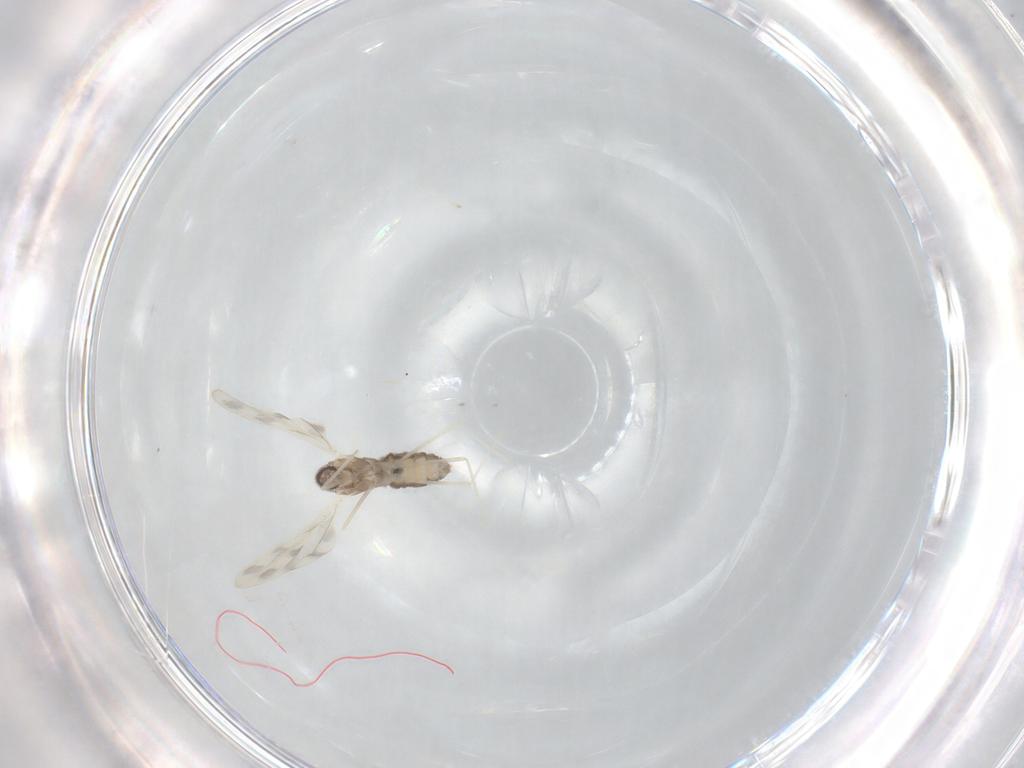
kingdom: Animalia
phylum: Arthropoda
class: Insecta
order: Diptera
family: Cecidomyiidae
